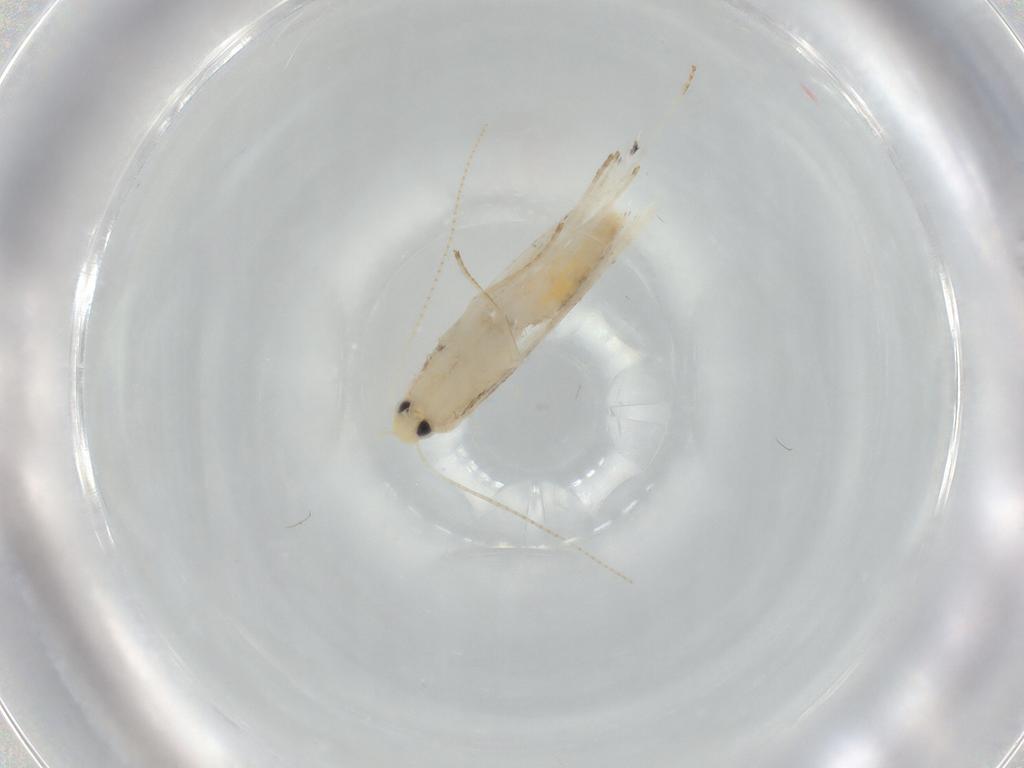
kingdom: Animalia
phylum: Arthropoda
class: Insecta
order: Lepidoptera
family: Gracillariidae
